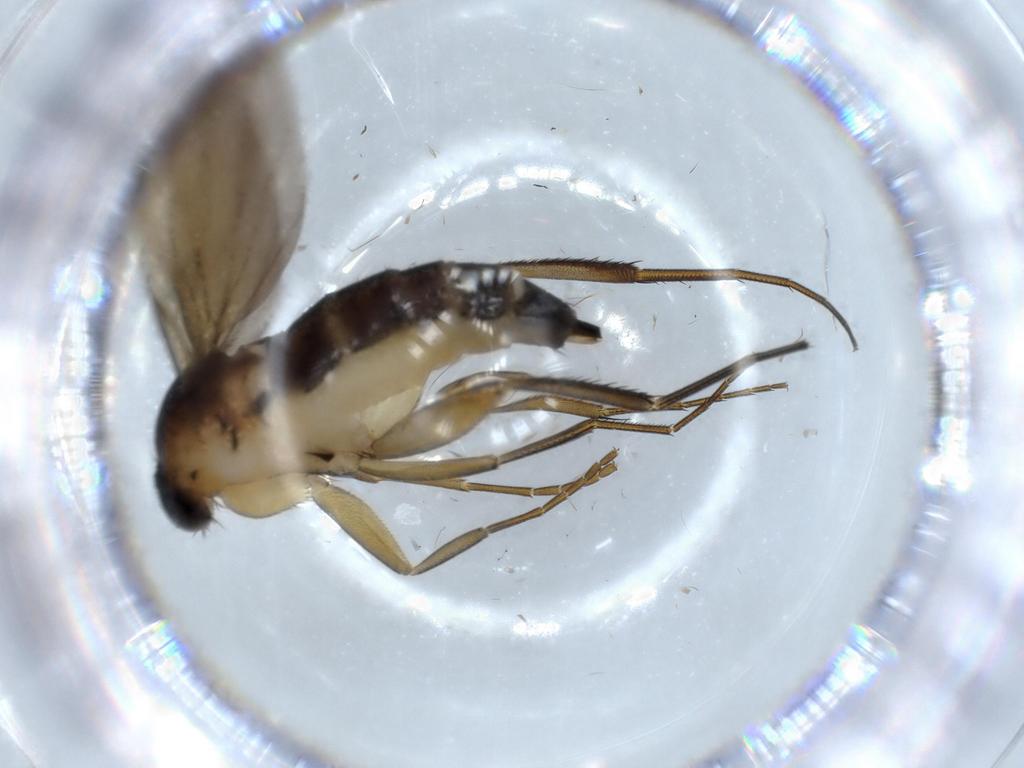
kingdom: Animalia
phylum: Arthropoda
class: Insecta
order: Diptera
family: Phoridae
